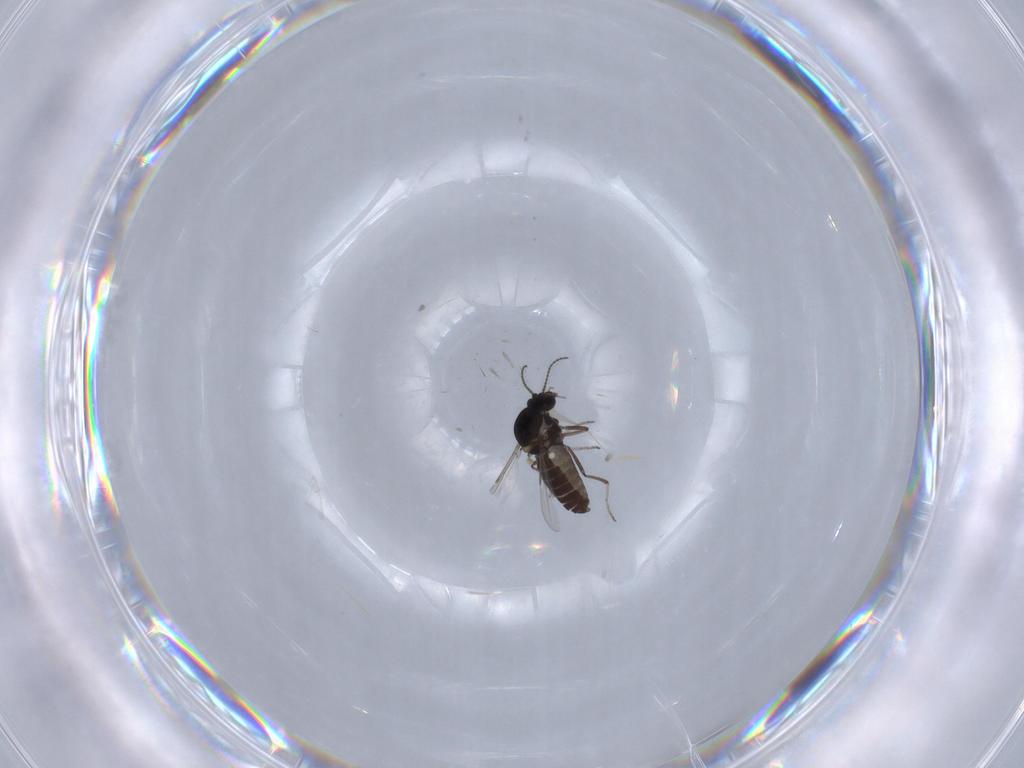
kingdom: Animalia
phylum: Arthropoda
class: Insecta
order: Diptera
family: Ceratopogonidae
